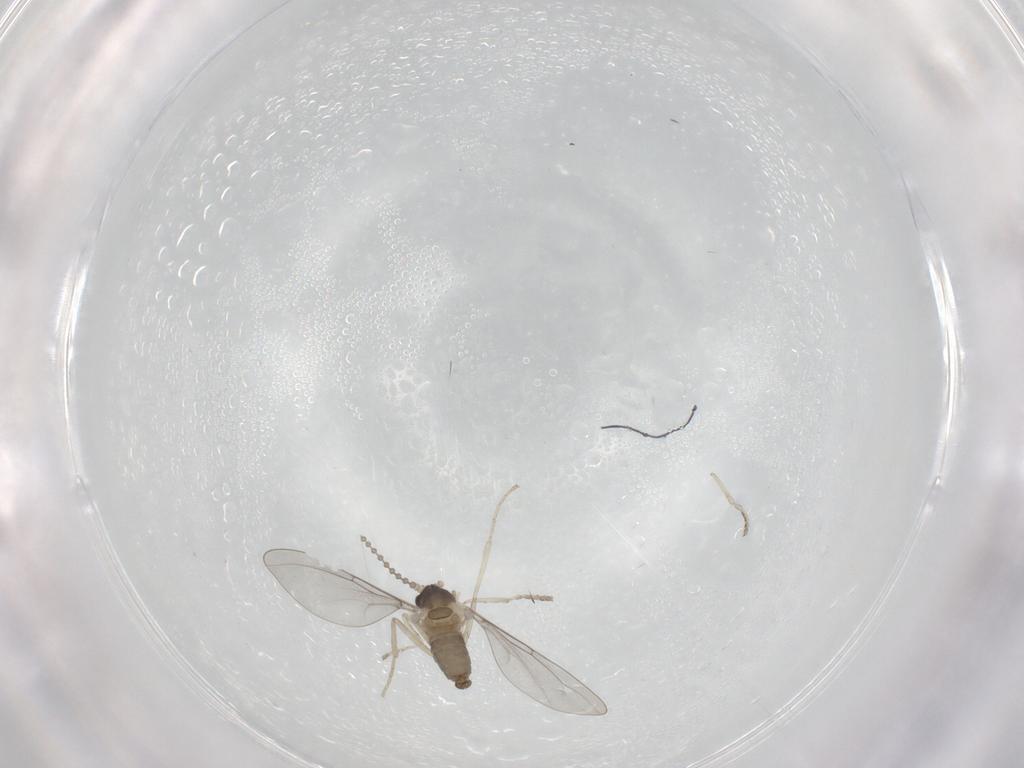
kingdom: Animalia
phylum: Arthropoda
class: Insecta
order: Diptera
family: Cecidomyiidae
